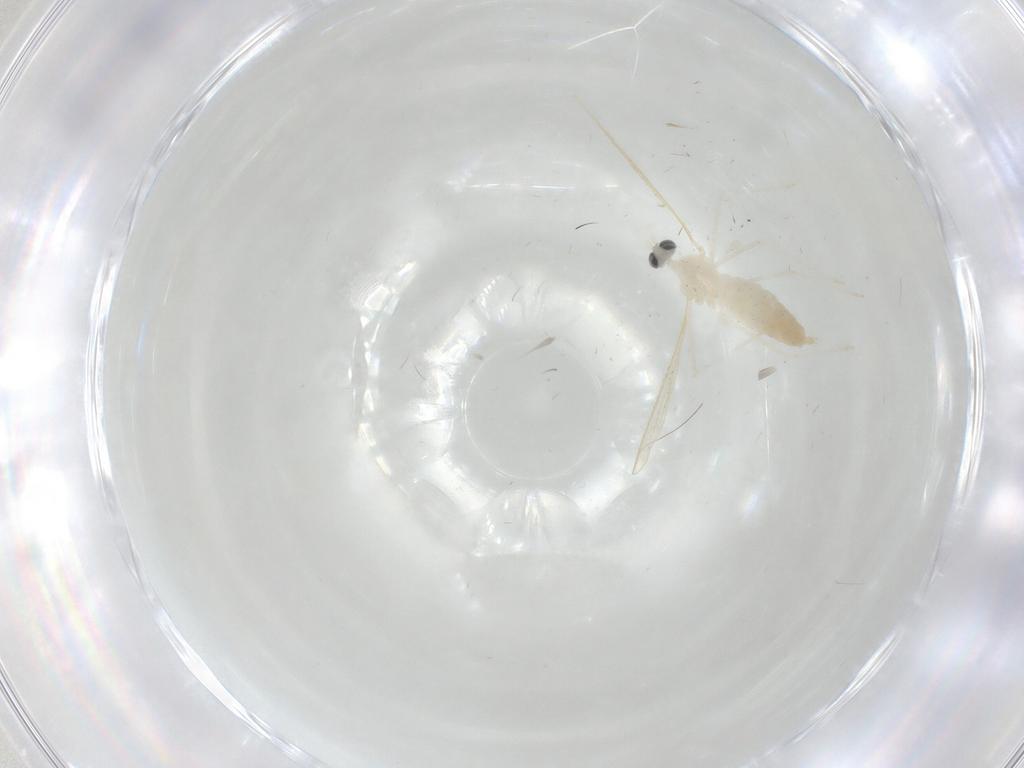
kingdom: Animalia
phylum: Arthropoda
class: Insecta
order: Diptera
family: Cecidomyiidae
